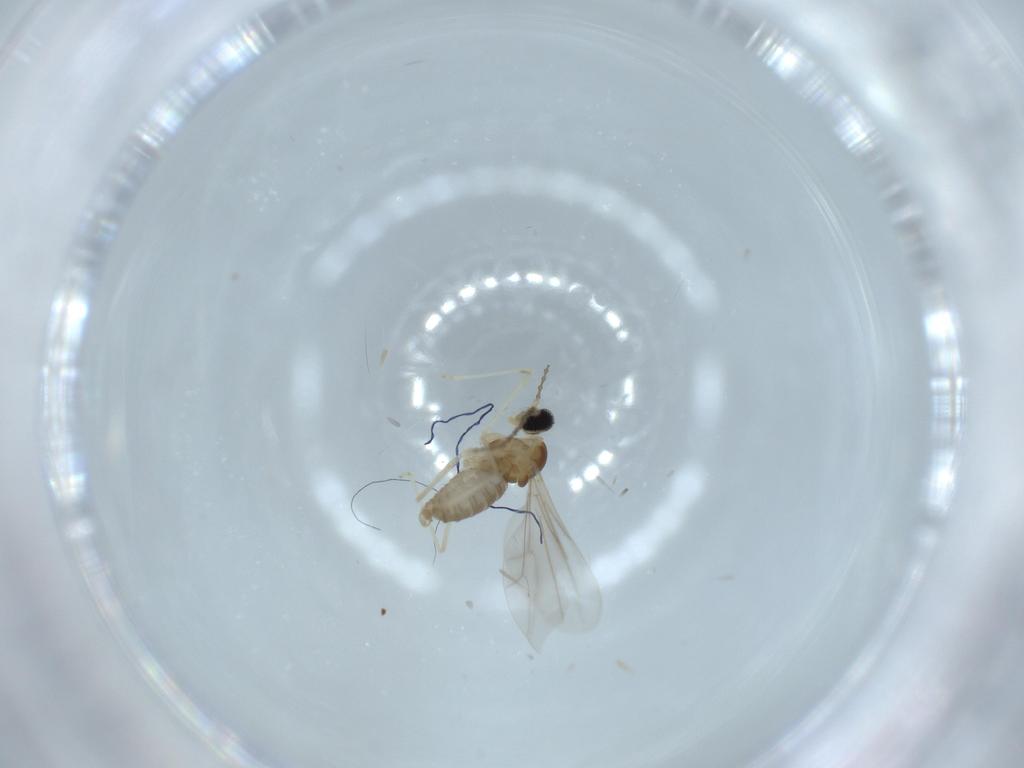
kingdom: Animalia
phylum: Arthropoda
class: Insecta
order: Diptera
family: Cecidomyiidae
